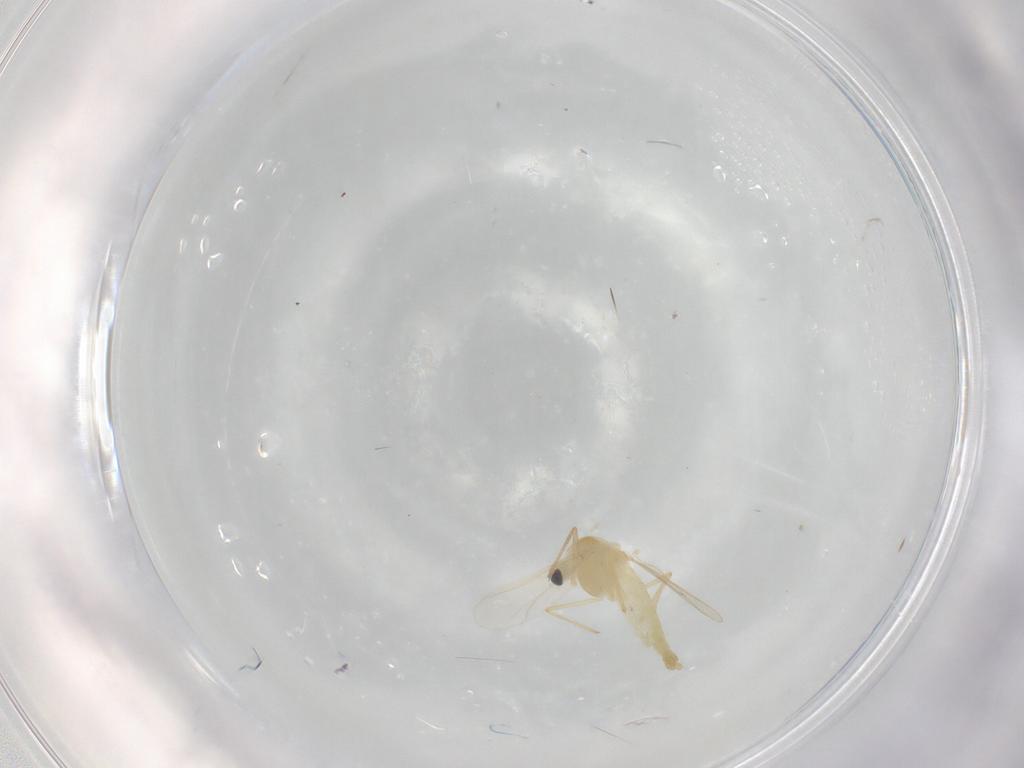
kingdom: Animalia
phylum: Arthropoda
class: Insecta
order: Diptera
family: Chironomidae
